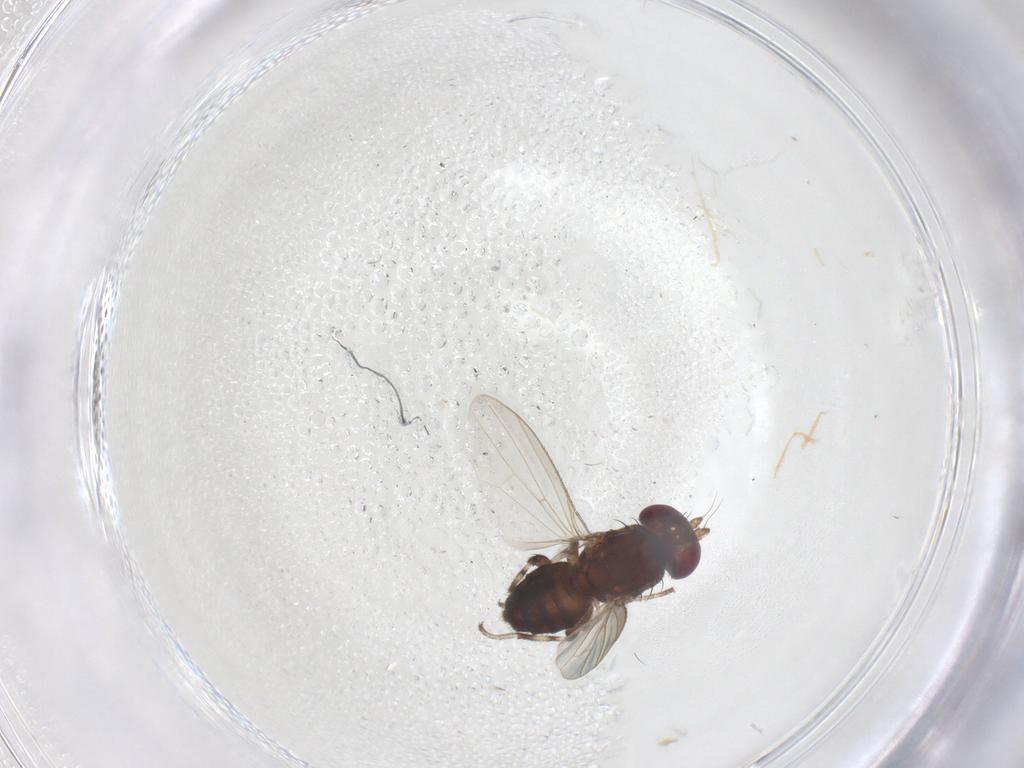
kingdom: Animalia
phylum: Arthropoda
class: Insecta
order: Diptera
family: Heleomyzidae
